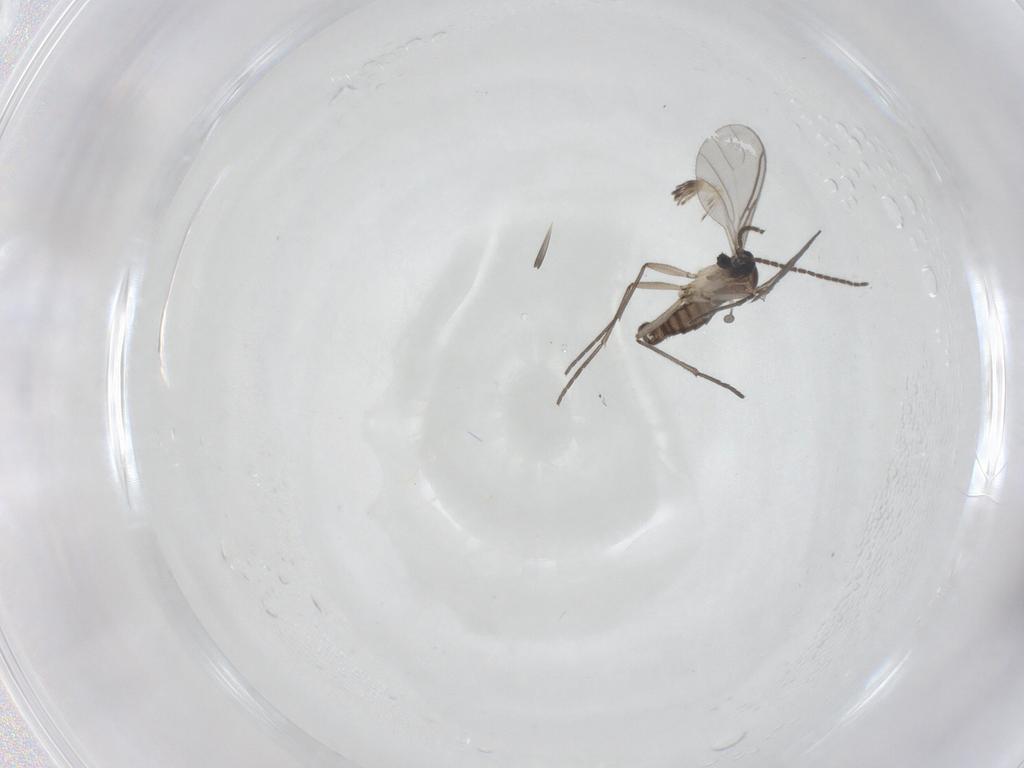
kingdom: Animalia
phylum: Arthropoda
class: Insecta
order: Diptera
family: Sciaridae
